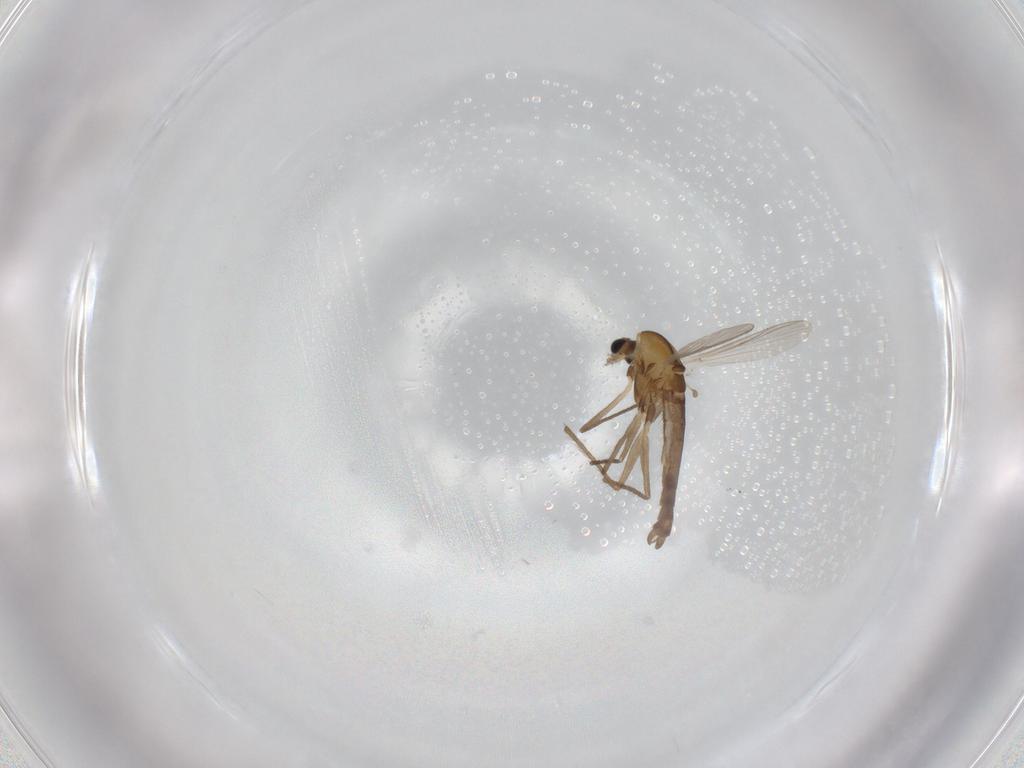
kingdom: Animalia
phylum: Arthropoda
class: Insecta
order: Diptera
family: Chironomidae
